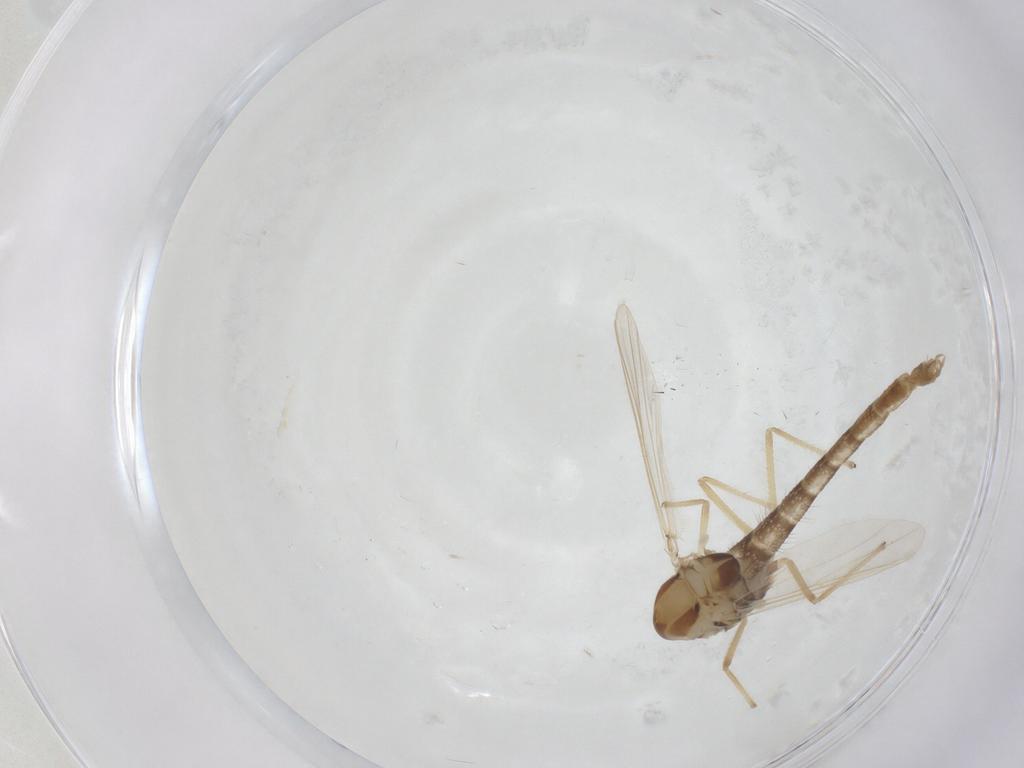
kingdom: Animalia
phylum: Arthropoda
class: Insecta
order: Diptera
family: Chironomidae
